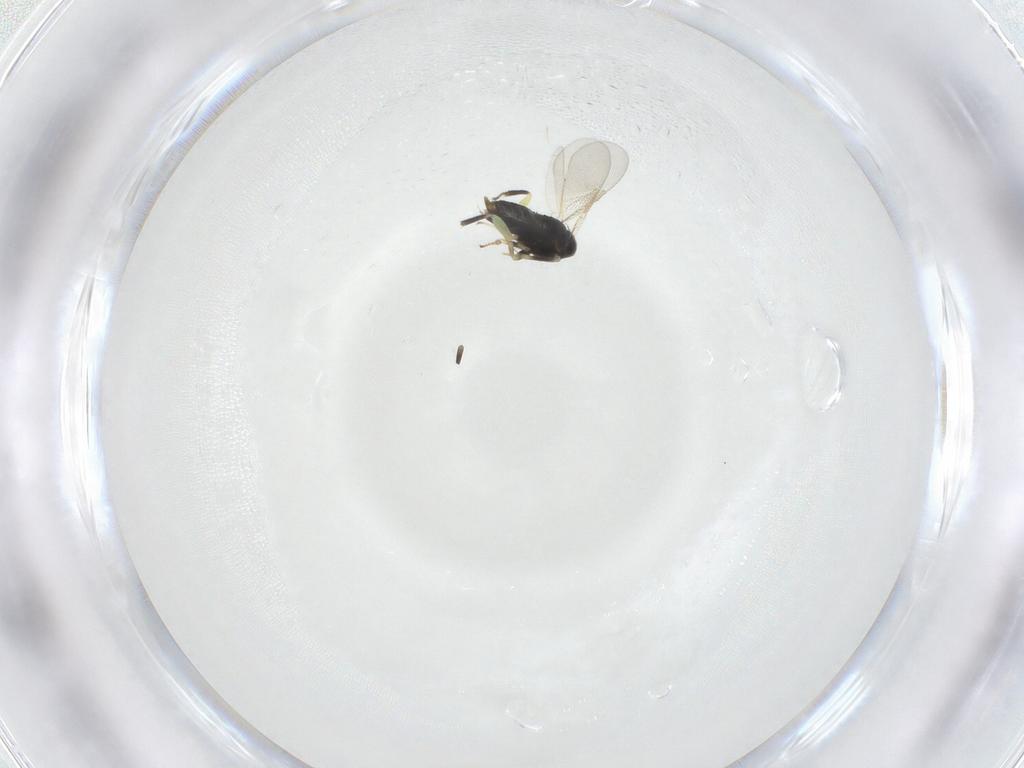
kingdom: Animalia
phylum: Arthropoda
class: Insecta
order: Hymenoptera
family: Aphelinidae
